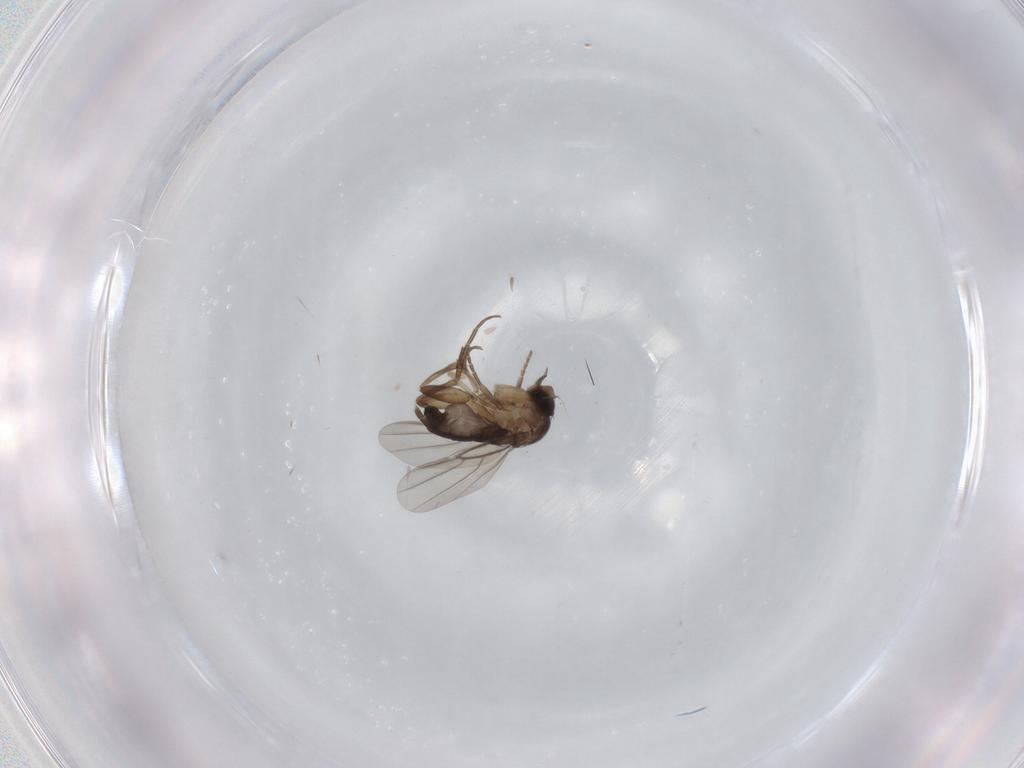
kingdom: Animalia
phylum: Arthropoda
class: Insecta
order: Diptera
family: Phoridae
